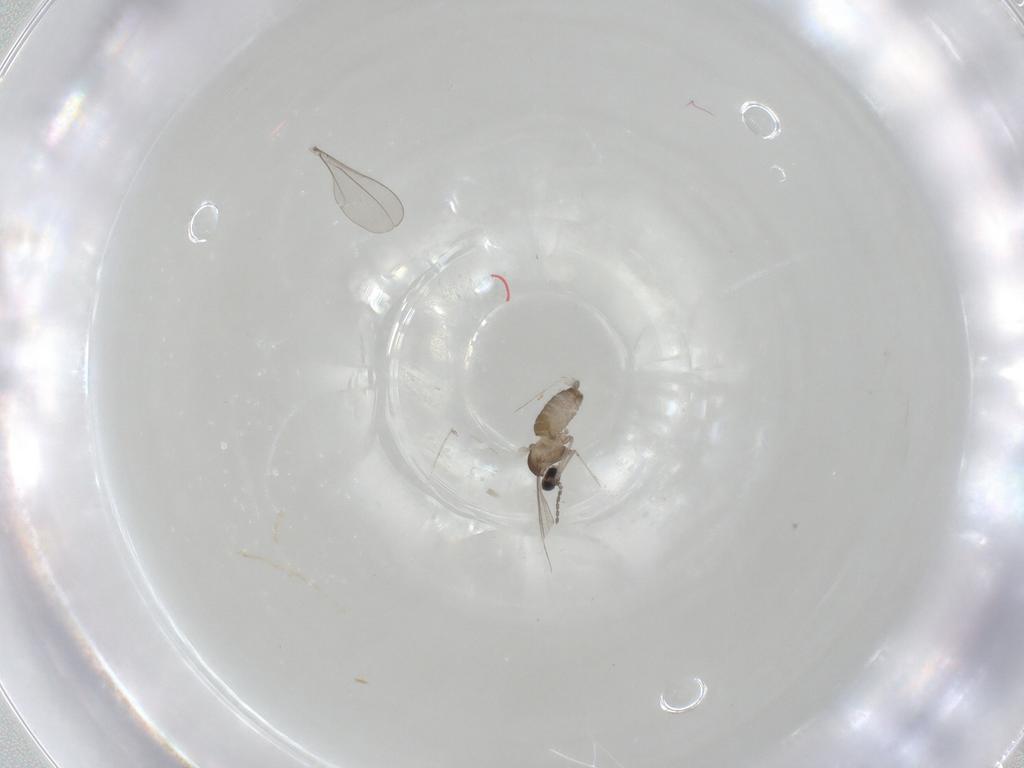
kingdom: Animalia
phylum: Arthropoda
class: Insecta
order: Diptera
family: Cecidomyiidae
